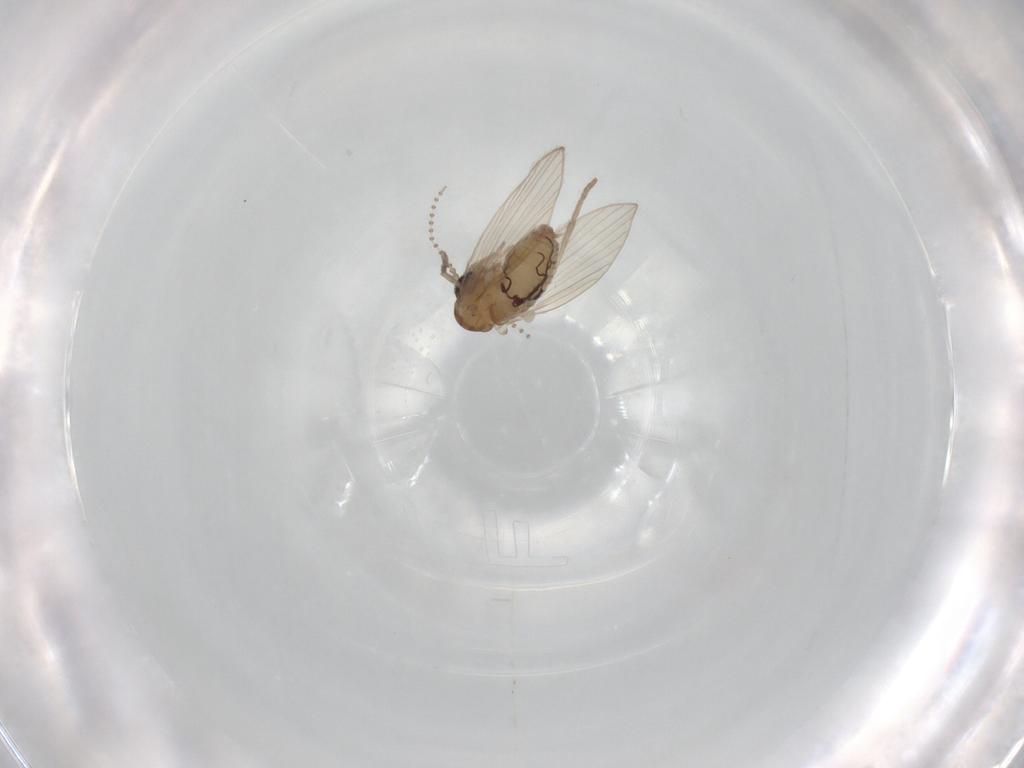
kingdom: Animalia
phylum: Arthropoda
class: Insecta
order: Diptera
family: Psychodidae
